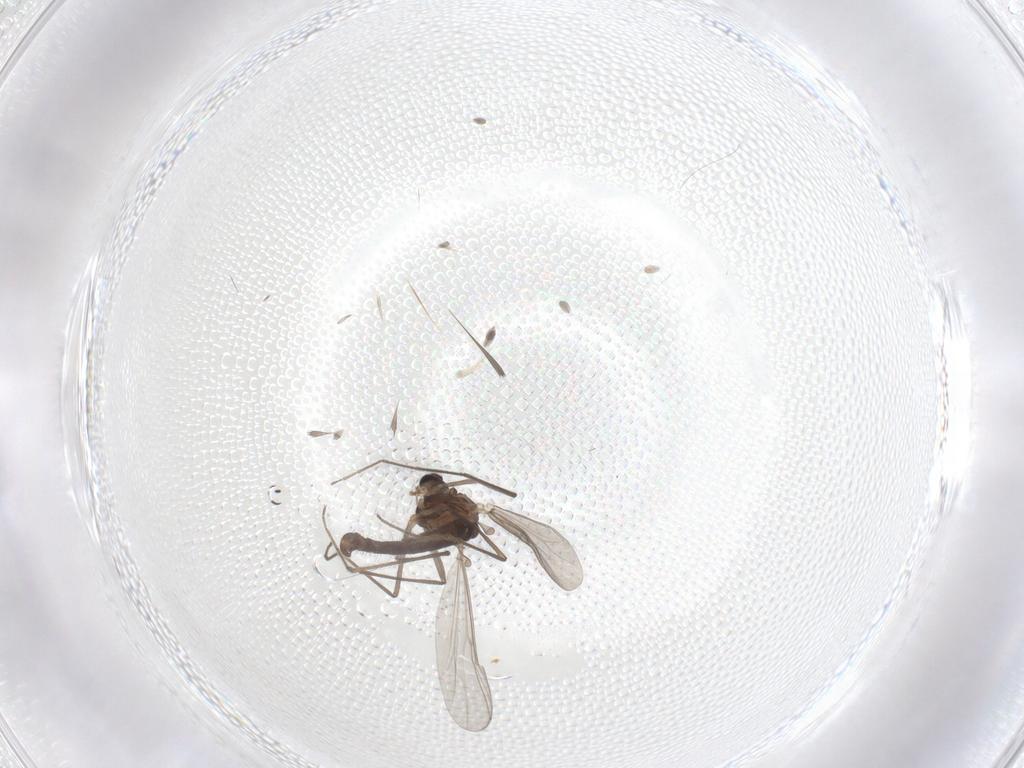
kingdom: Animalia
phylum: Arthropoda
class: Insecta
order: Diptera
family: Chironomidae
